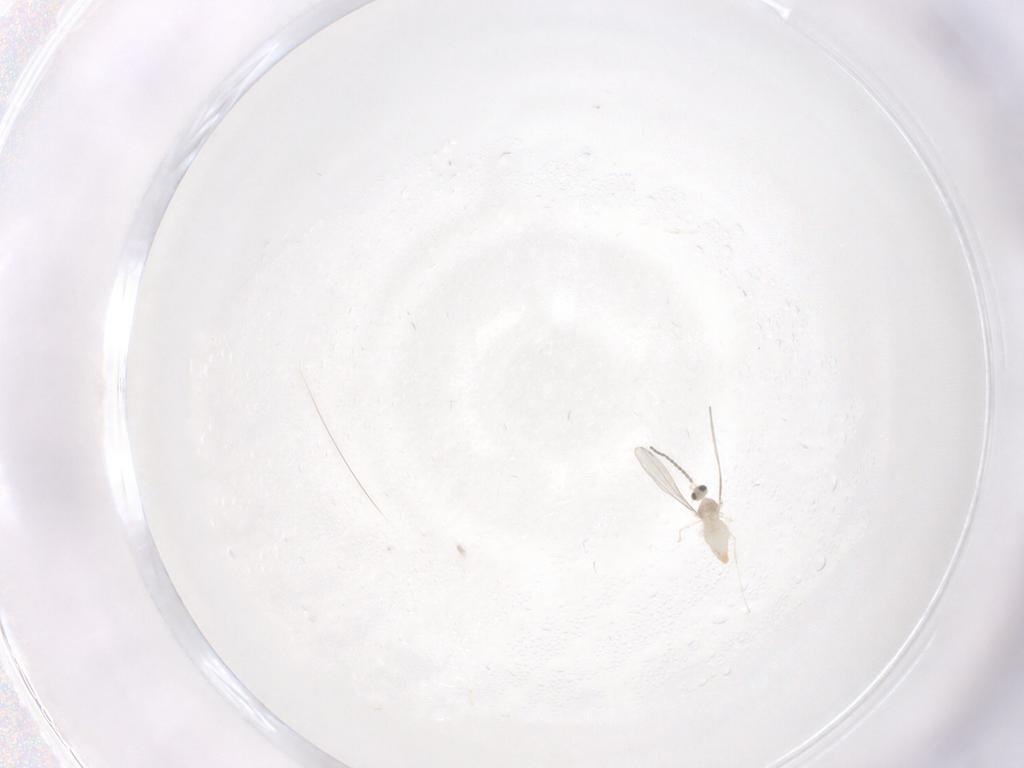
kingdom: Animalia
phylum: Arthropoda
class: Insecta
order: Diptera
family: Cecidomyiidae
